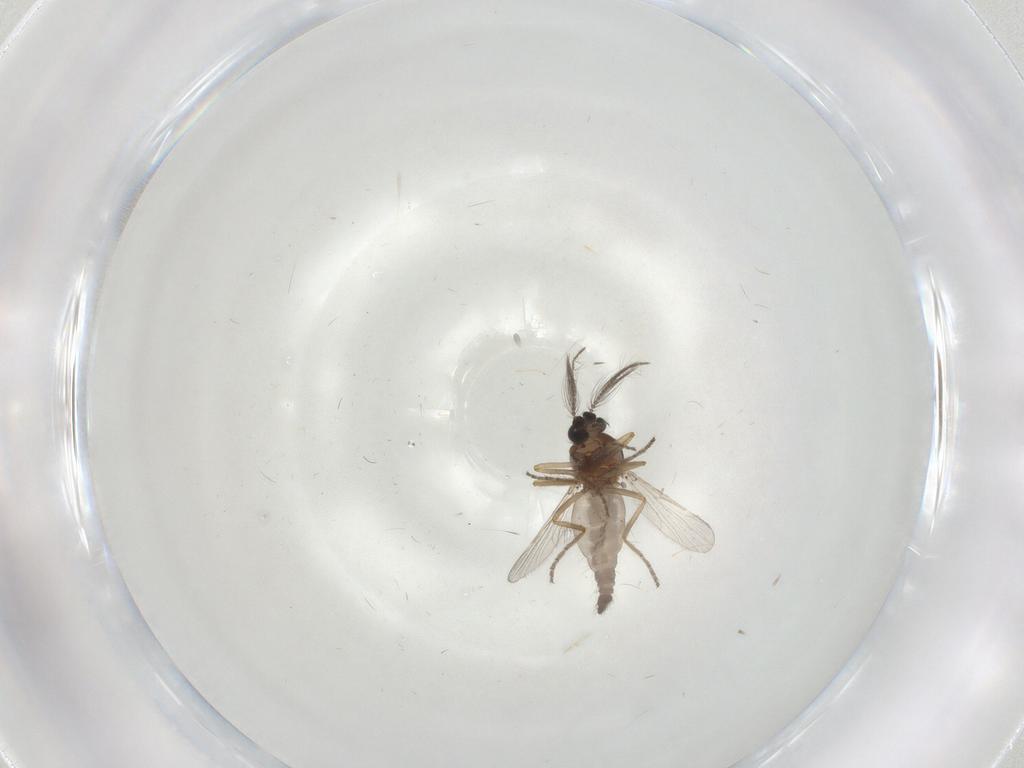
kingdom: Animalia
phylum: Arthropoda
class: Insecta
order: Diptera
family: Ceratopogonidae
